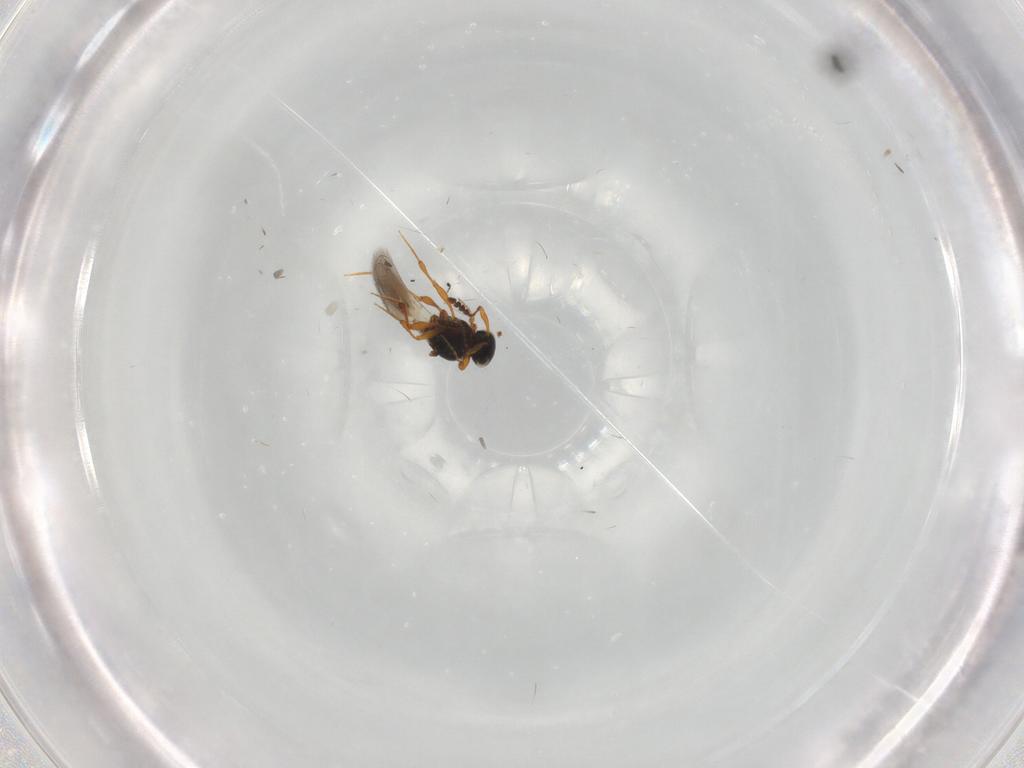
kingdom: Animalia
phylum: Arthropoda
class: Insecta
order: Hymenoptera
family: Platygastridae
